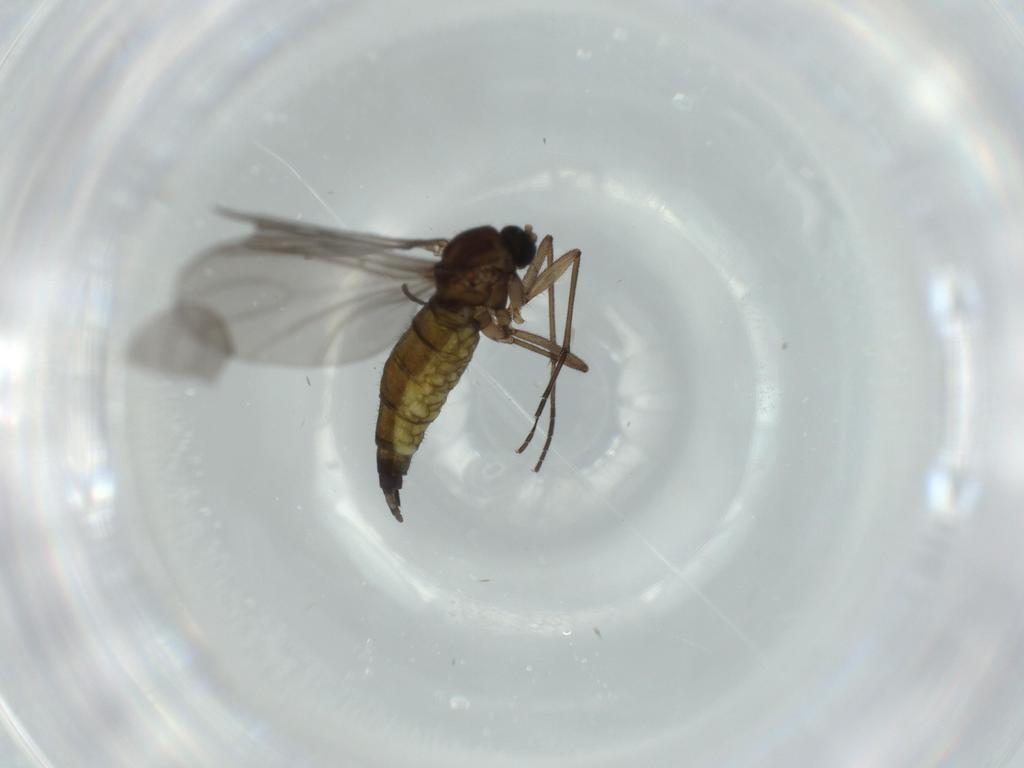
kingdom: Animalia
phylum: Arthropoda
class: Insecta
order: Diptera
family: Sciaridae
